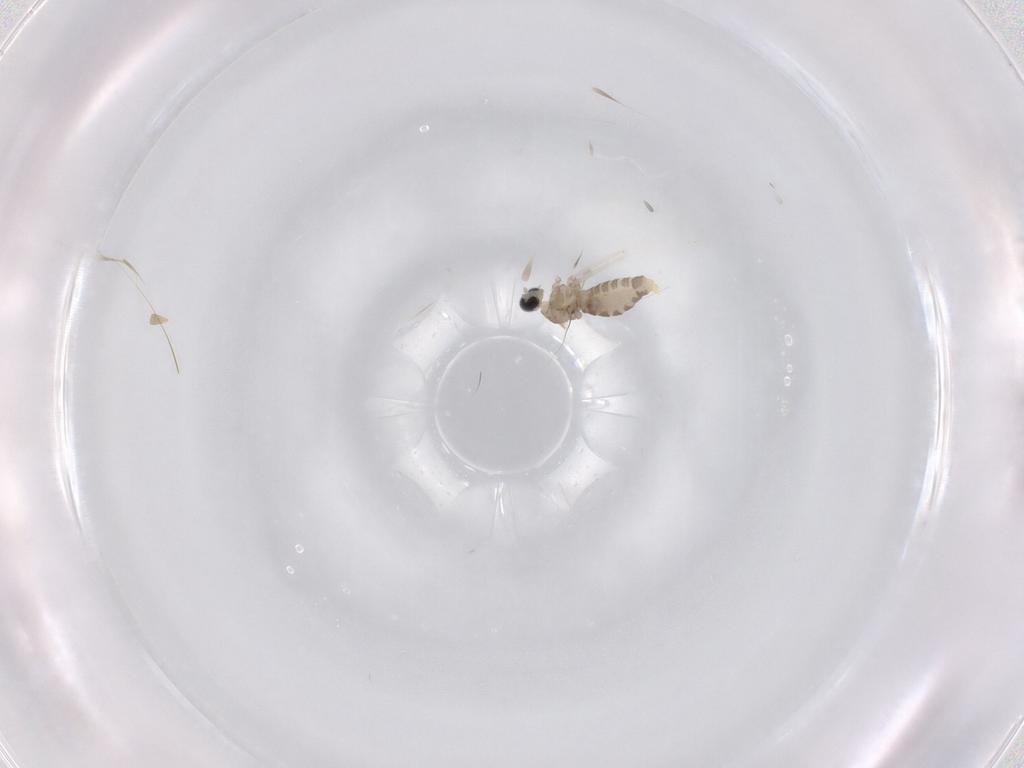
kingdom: Animalia
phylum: Arthropoda
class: Insecta
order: Diptera
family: Cecidomyiidae
